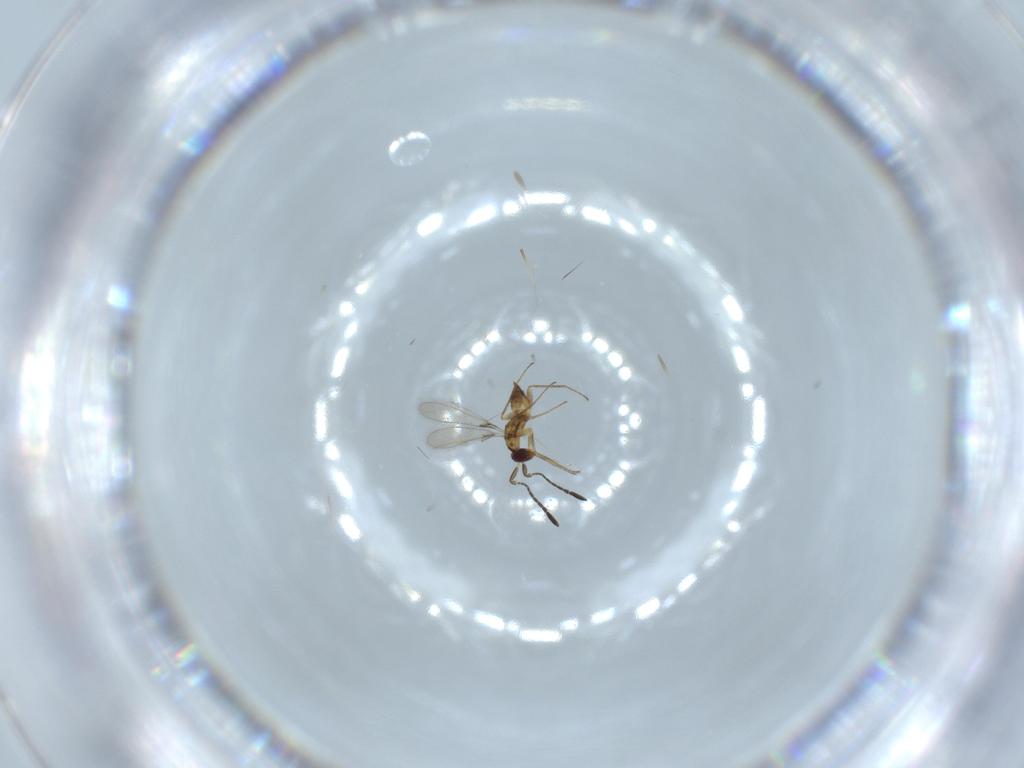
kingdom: Animalia
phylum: Arthropoda
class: Insecta
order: Hymenoptera
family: Mymaridae
